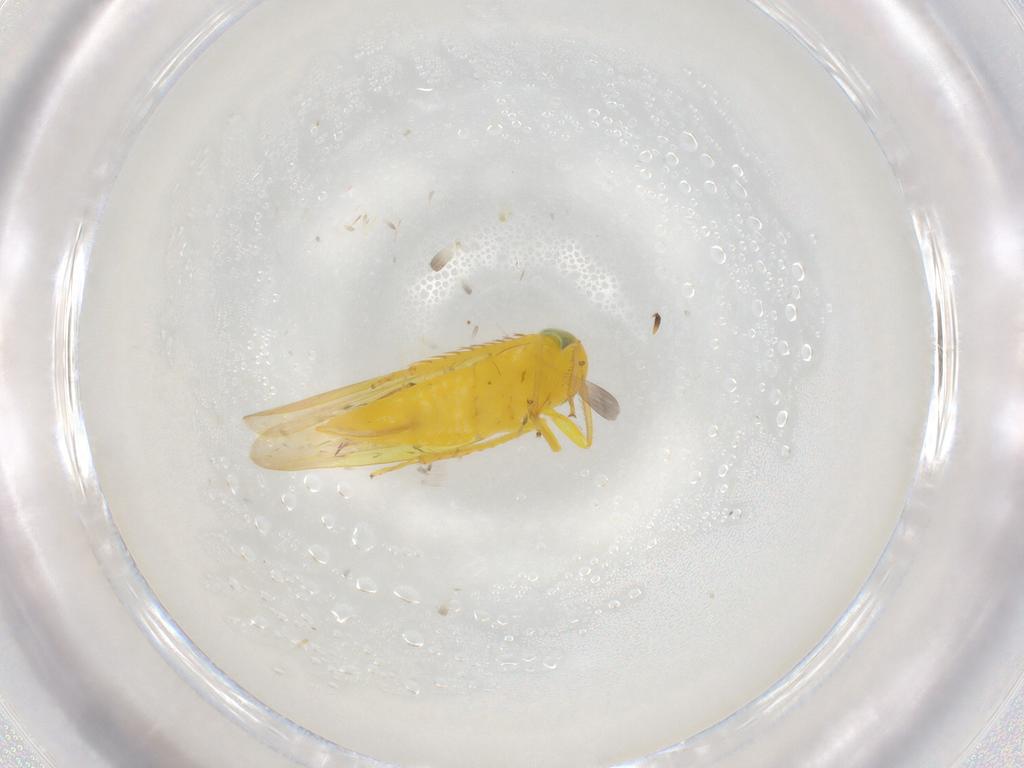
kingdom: Animalia
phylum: Arthropoda
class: Insecta
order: Hemiptera
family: Cicadellidae
